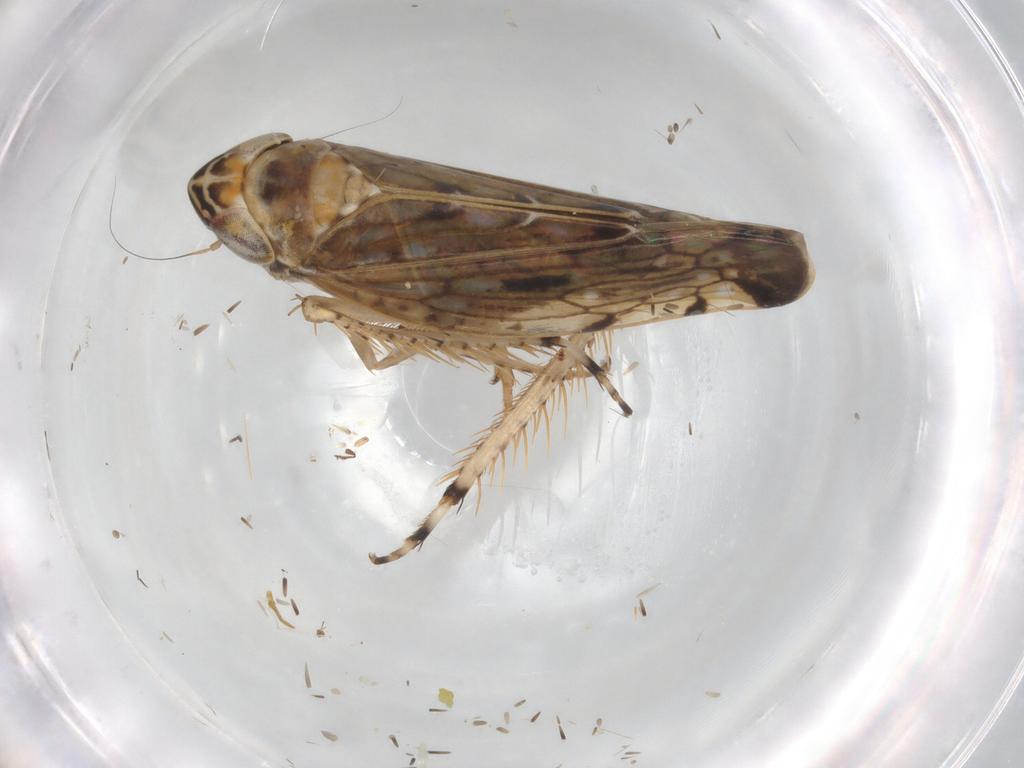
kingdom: Animalia
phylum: Arthropoda
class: Insecta
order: Hemiptera
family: Cicadellidae
